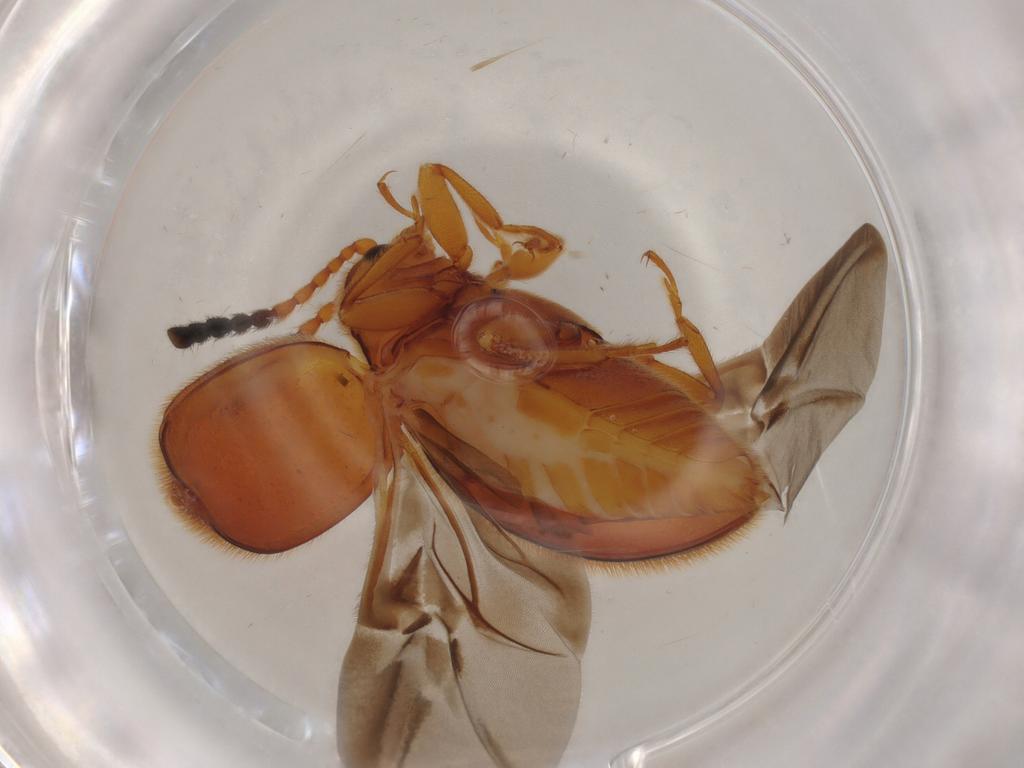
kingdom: Animalia
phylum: Arthropoda
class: Insecta
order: Coleoptera
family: Endomychidae
